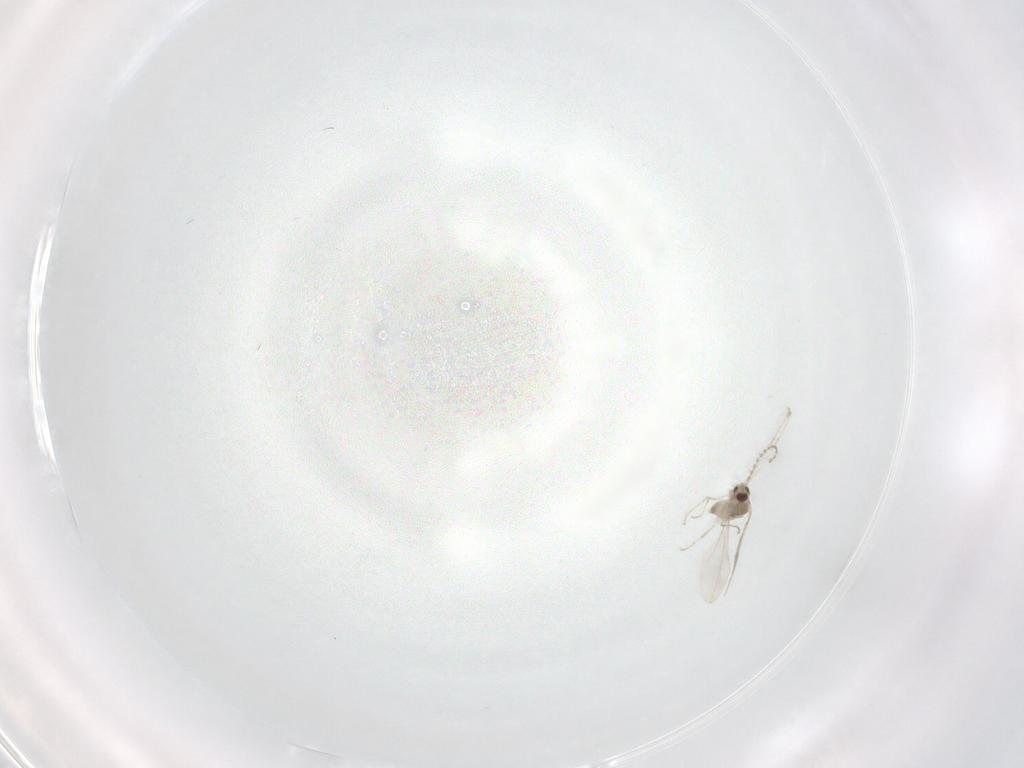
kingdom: Animalia
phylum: Arthropoda
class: Insecta
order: Diptera
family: Cecidomyiidae
